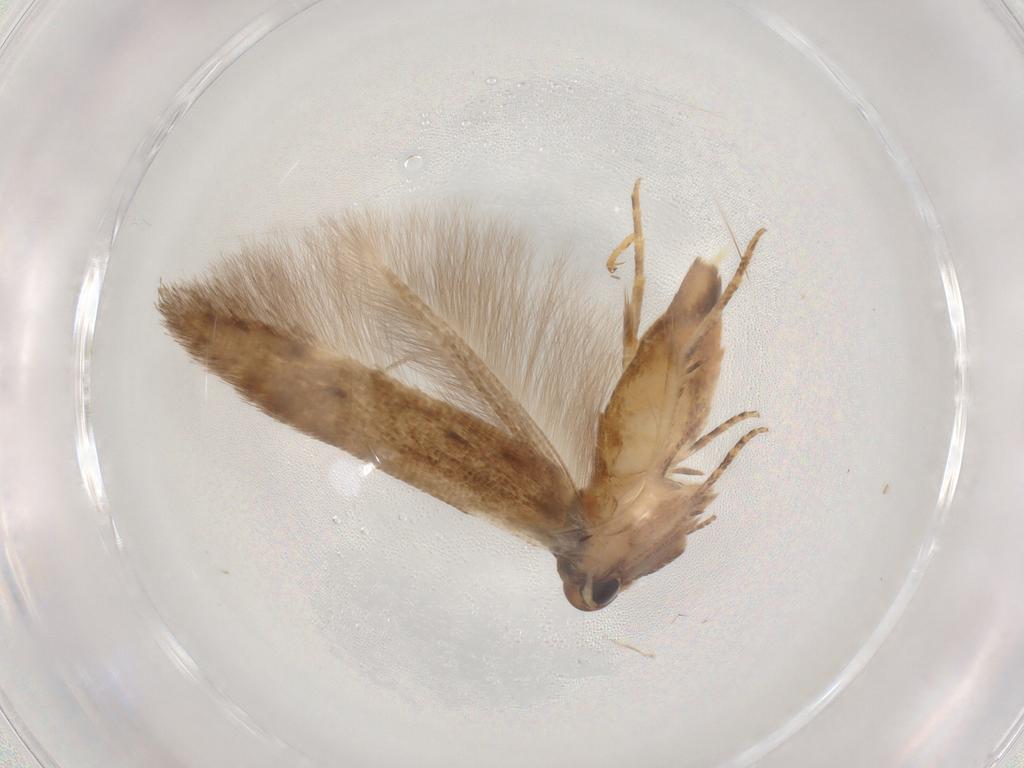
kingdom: Animalia
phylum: Arthropoda
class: Insecta
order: Lepidoptera
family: Cosmopterigidae
